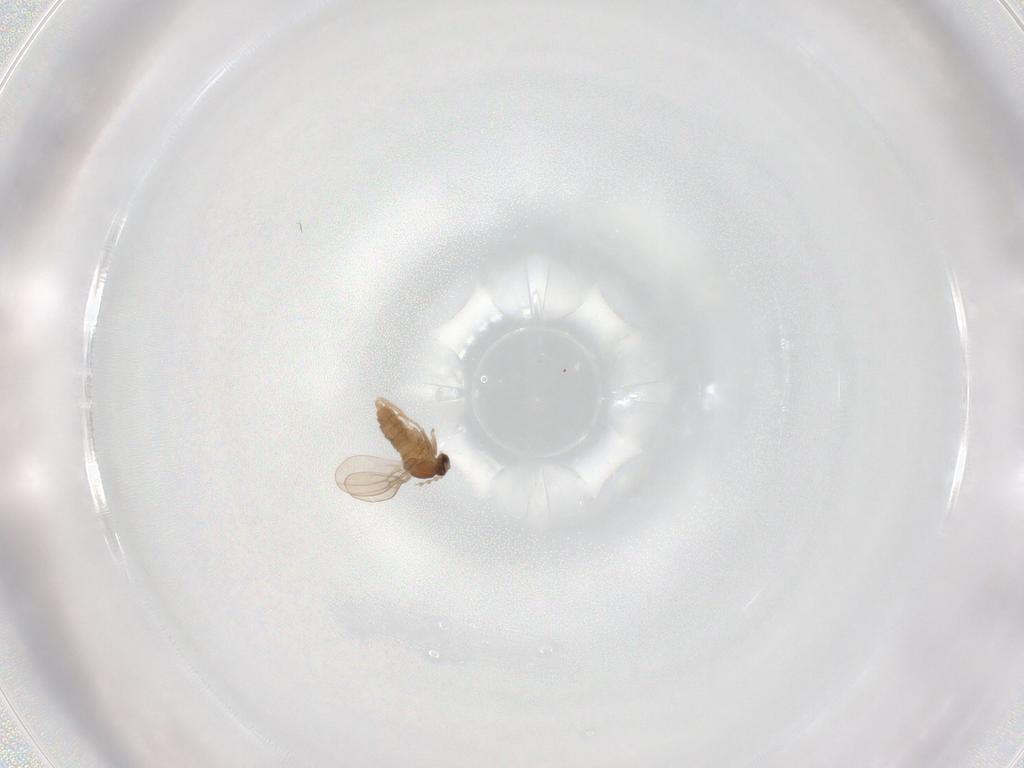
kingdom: Animalia
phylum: Arthropoda
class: Insecta
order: Diptera
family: Cecidomyiidae
